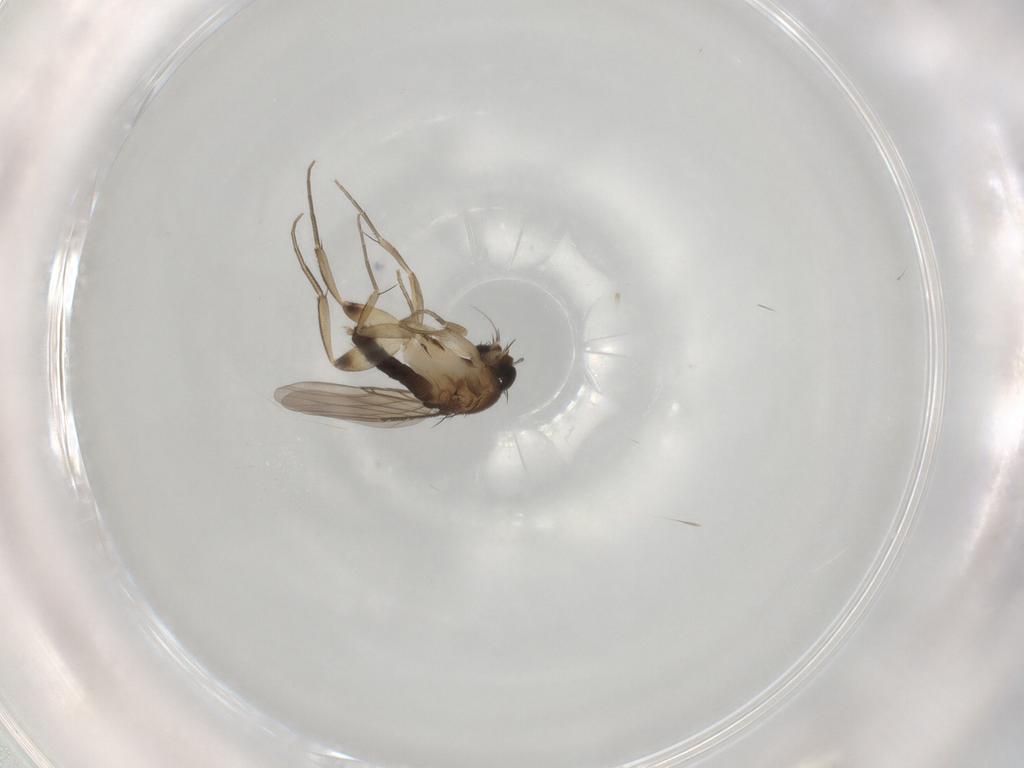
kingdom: Animalia
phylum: Arthropoda
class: Insecta
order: Diptera
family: Phoridae
